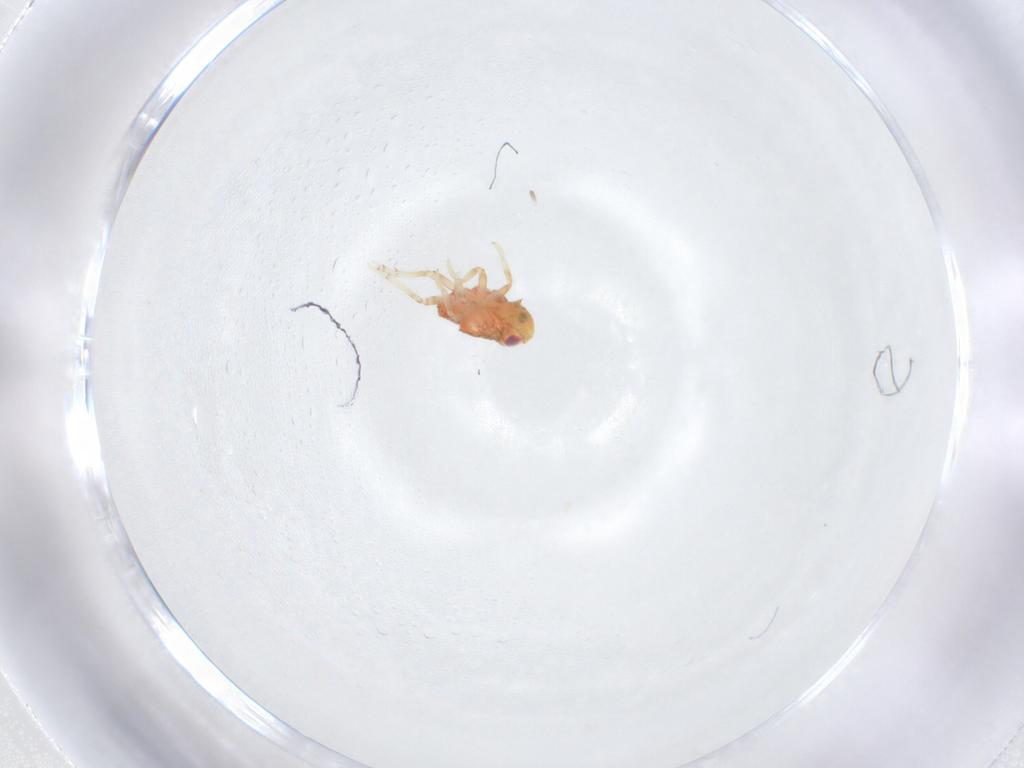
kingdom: Animalia
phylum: Arthropoda
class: Insecta
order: Hemiptera
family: Issidae
